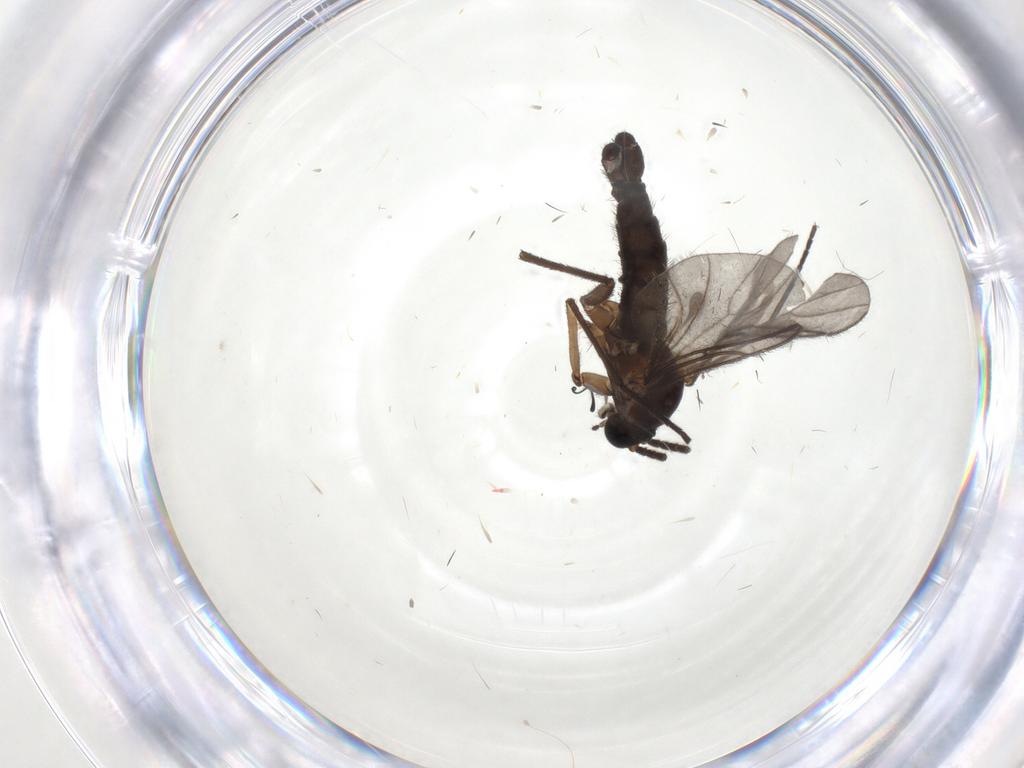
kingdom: Animalia
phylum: Arthropoda
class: Insecta
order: Diptera
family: Sciaridae
